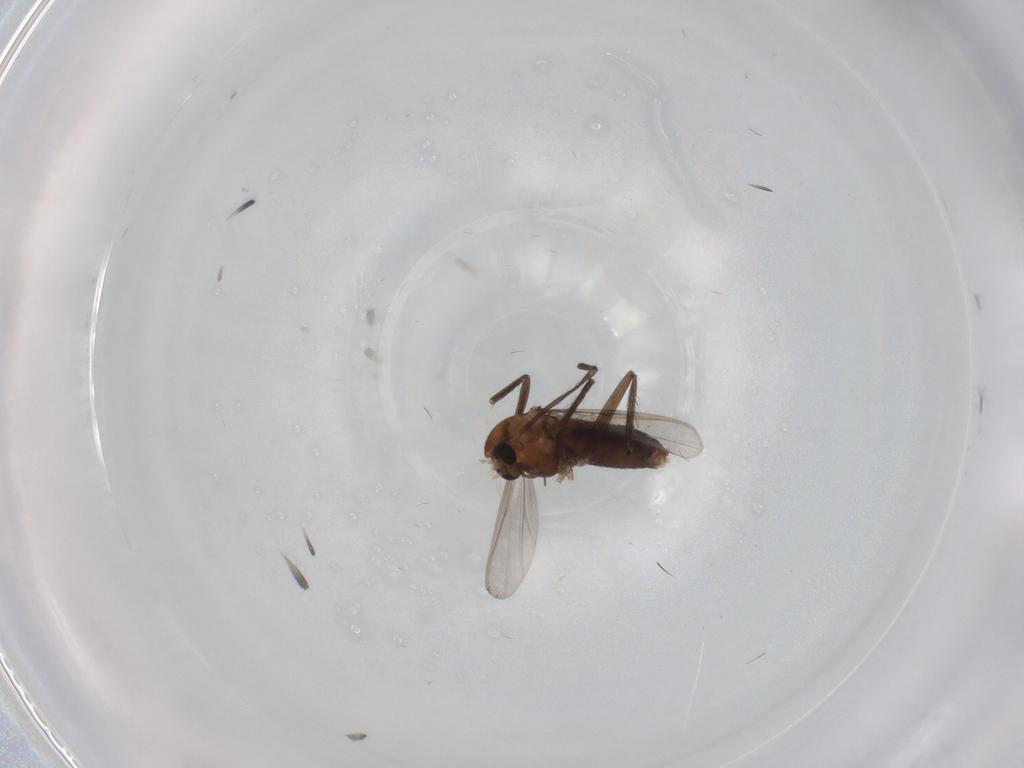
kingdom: Animalia
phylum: Arthropoda
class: Insecta
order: Diptera
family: Chironomidae
